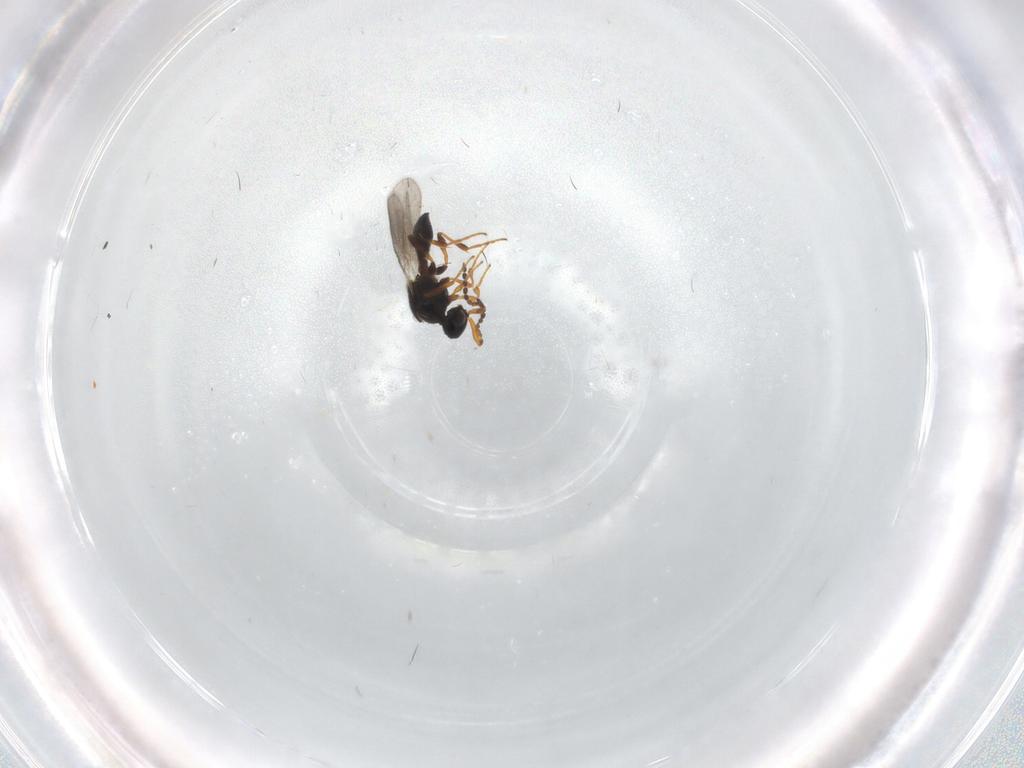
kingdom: Animalia
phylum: Arthropoda
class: Insecta
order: Hymenoptera
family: Platygastridae
